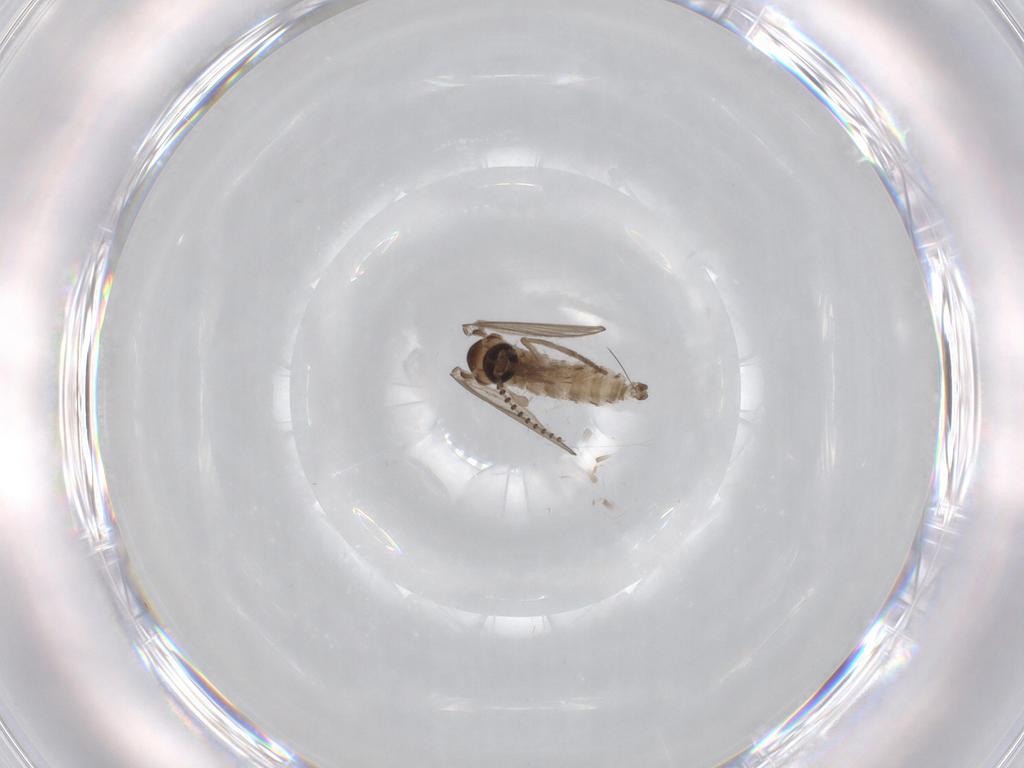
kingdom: Animalia
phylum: Arthropoda
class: Insecta
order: Diptera
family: Psychodidae
